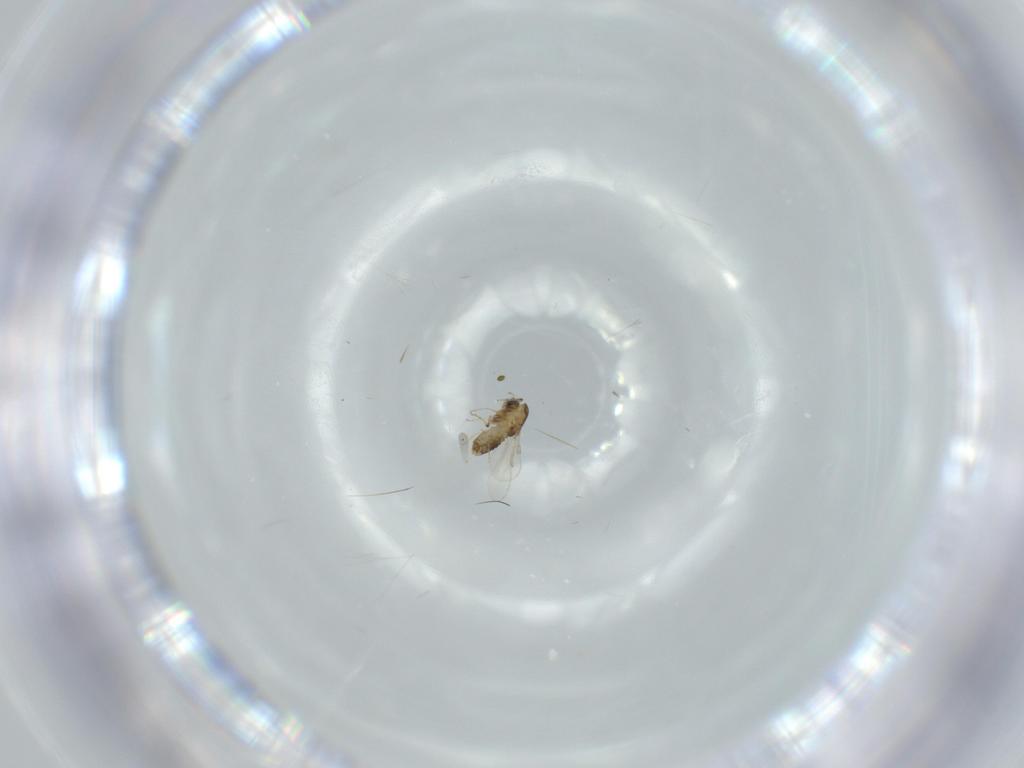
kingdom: Animalia
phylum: Arthropoda
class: Insecta
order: Diptera
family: Chironomidae
